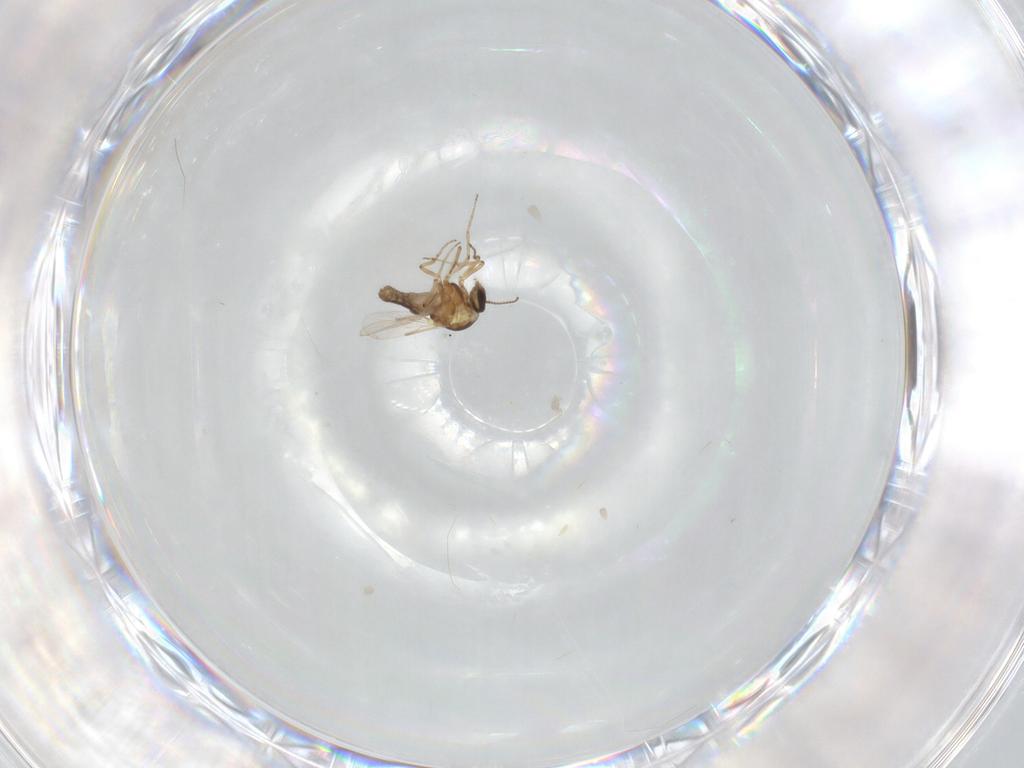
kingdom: Animalia
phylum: Arthropoda
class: Insecta
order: Diptera
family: Ceratopogonidae
